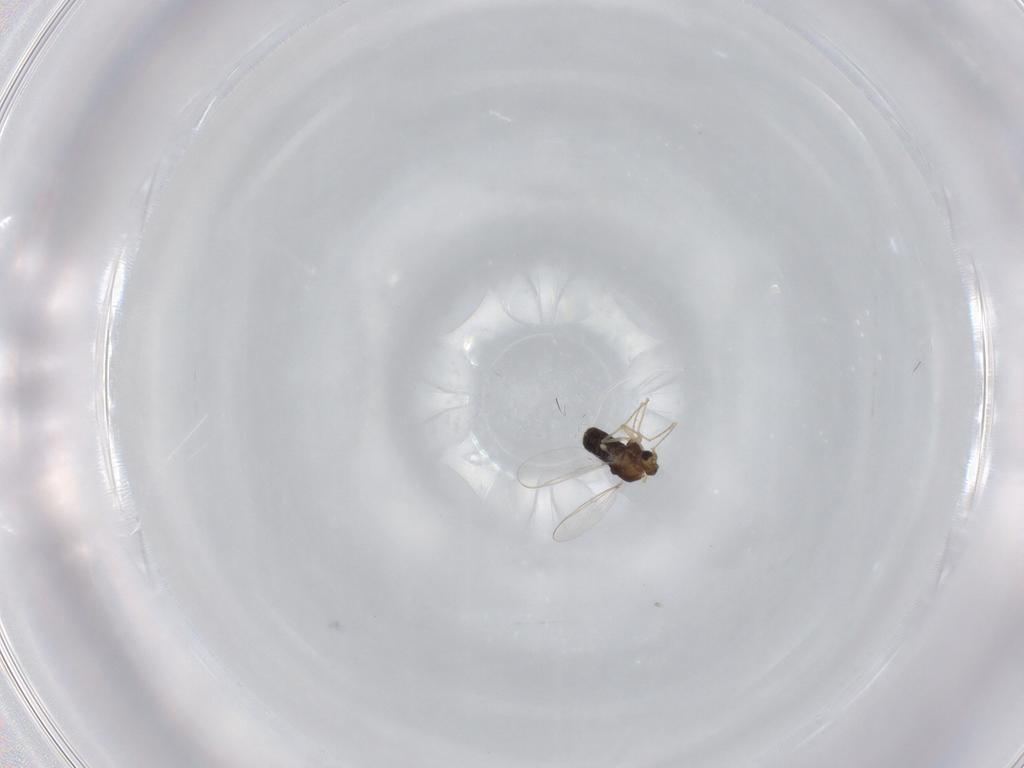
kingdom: Animalia
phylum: Arthropoda
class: Insecta
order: Diptera
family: Chironomidae
